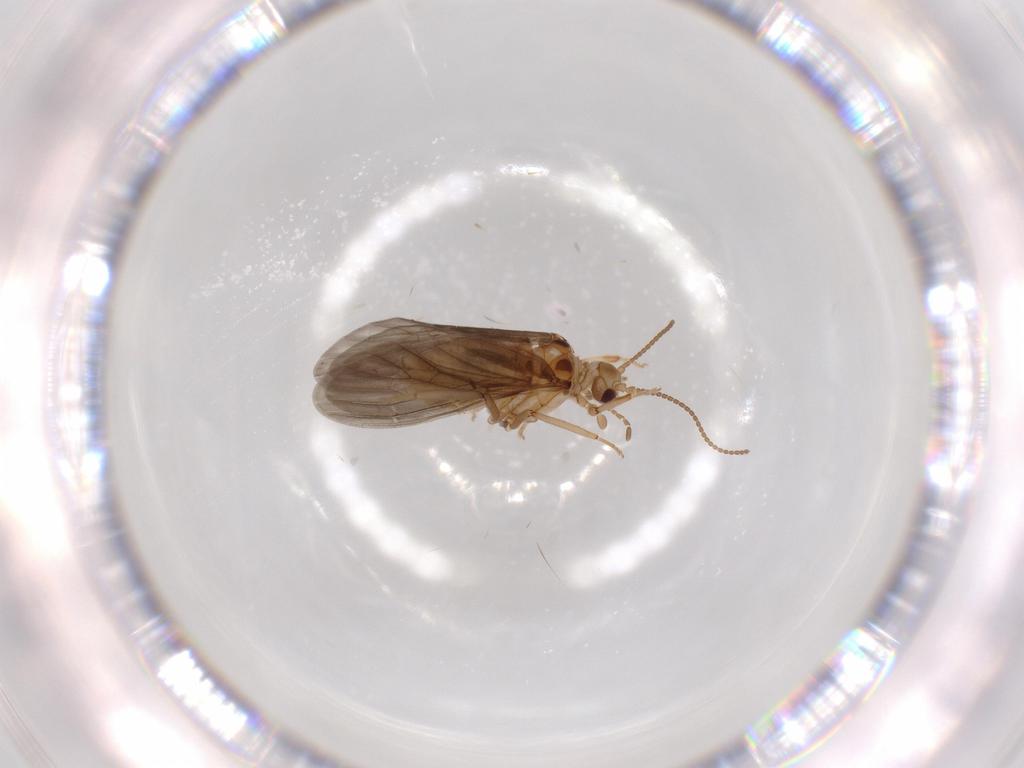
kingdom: Animalia
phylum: Arthropoda
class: Insecta
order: Neuroptera
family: Coniopterygidae
